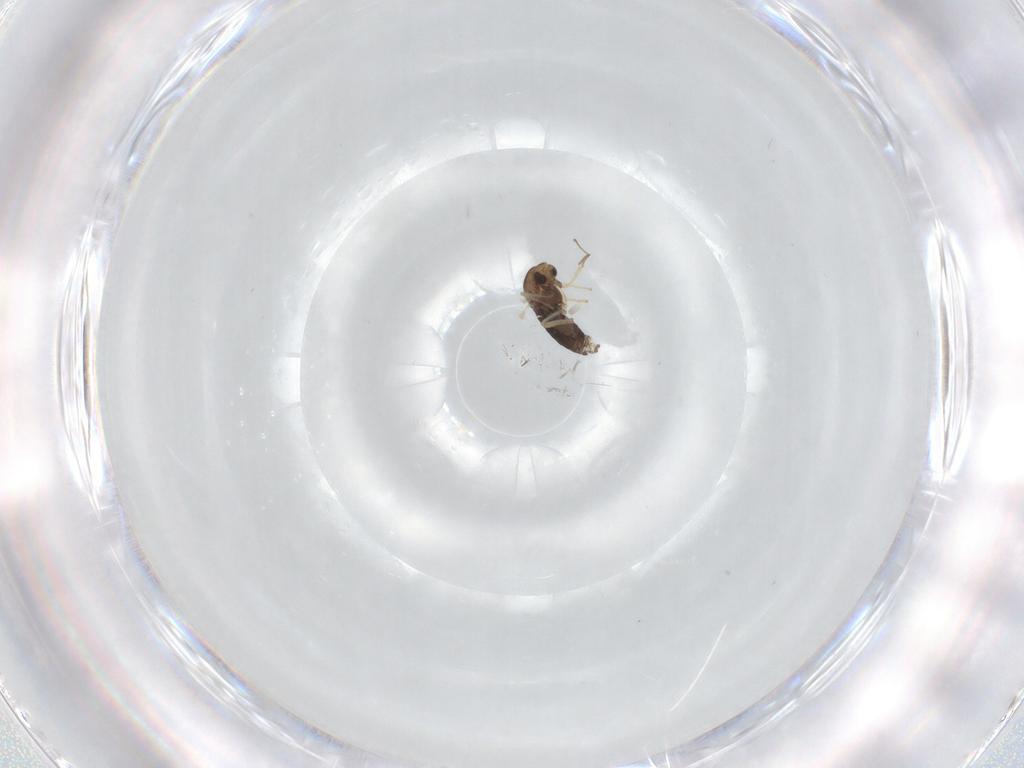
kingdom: Animalia
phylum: Arthropoda
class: Insecta
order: Diptera
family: Chironomidae
